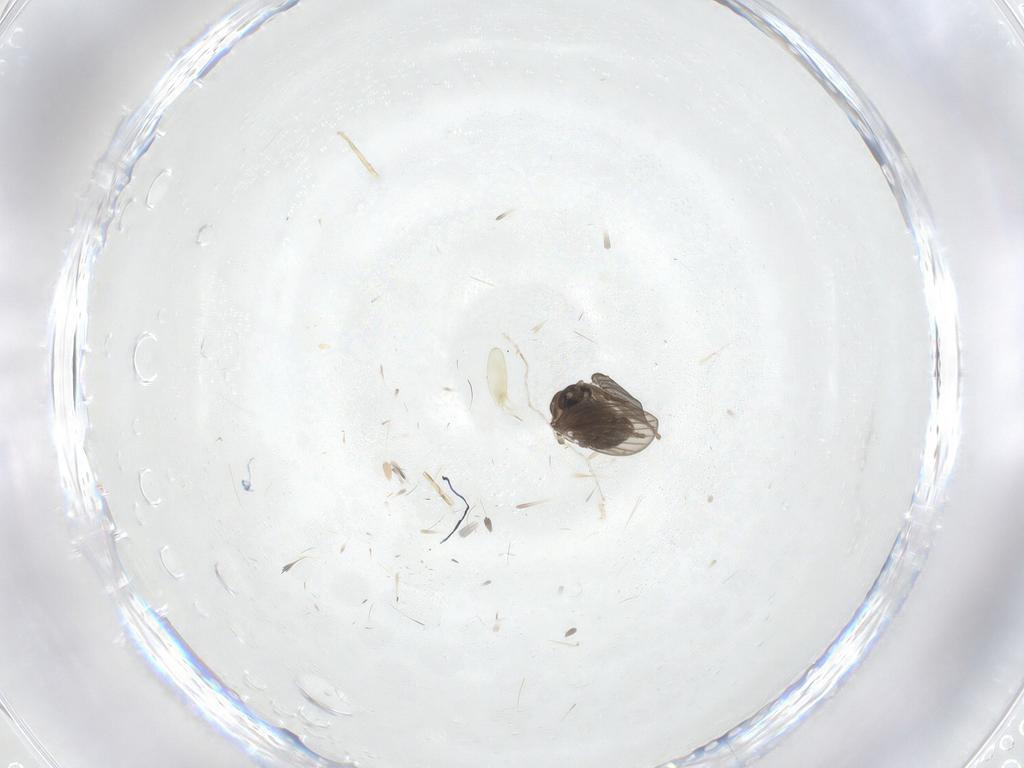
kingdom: Animalia
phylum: Arthropoda
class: Insecta
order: Diptera
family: Psychodidae
